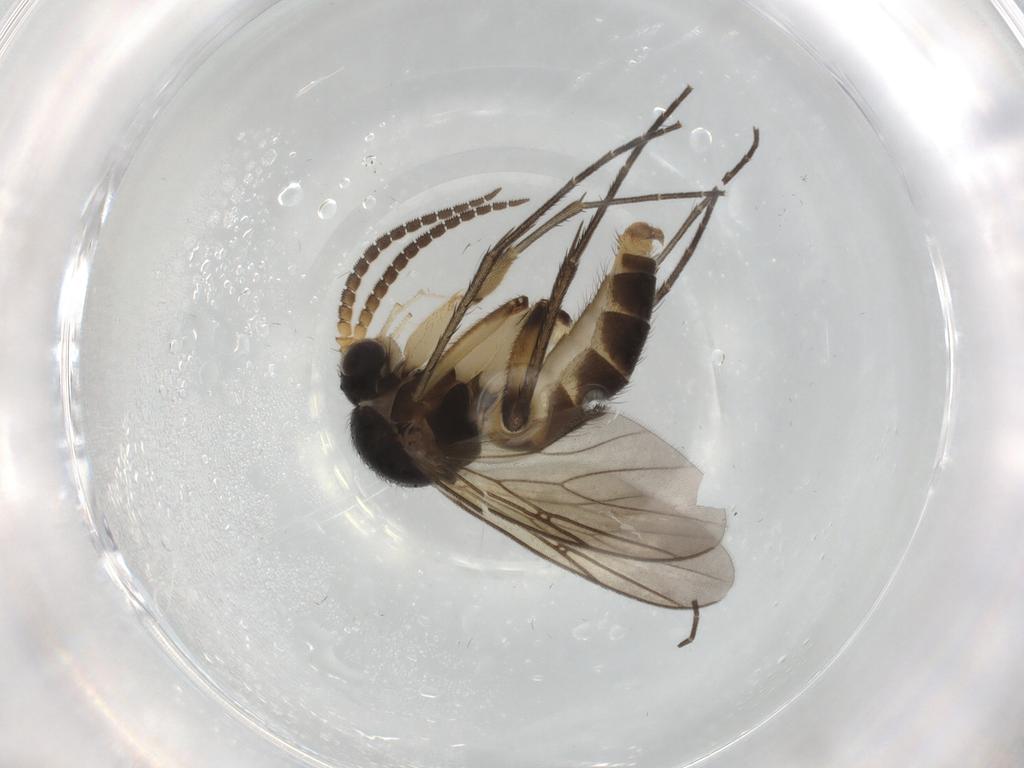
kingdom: Animalia
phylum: Arthropoda
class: Insecta
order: Diptera
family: Mycetophilidae
